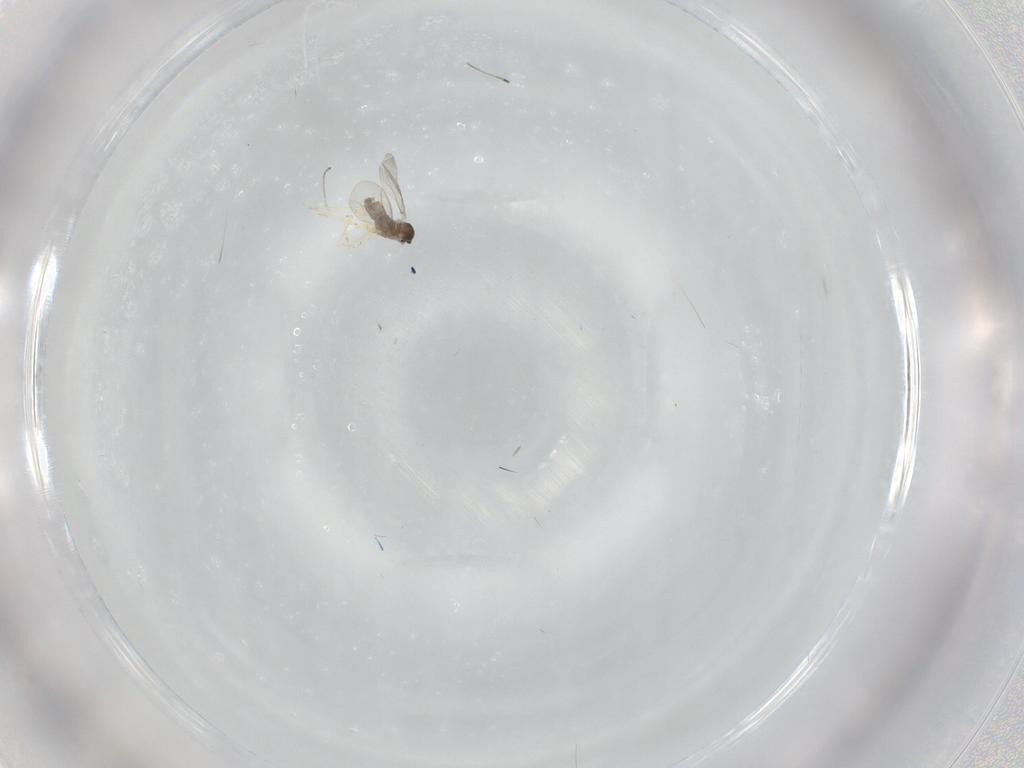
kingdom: Animalia
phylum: Arthropoda
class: Insecta
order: Diptera
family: Cecidomyiidae
